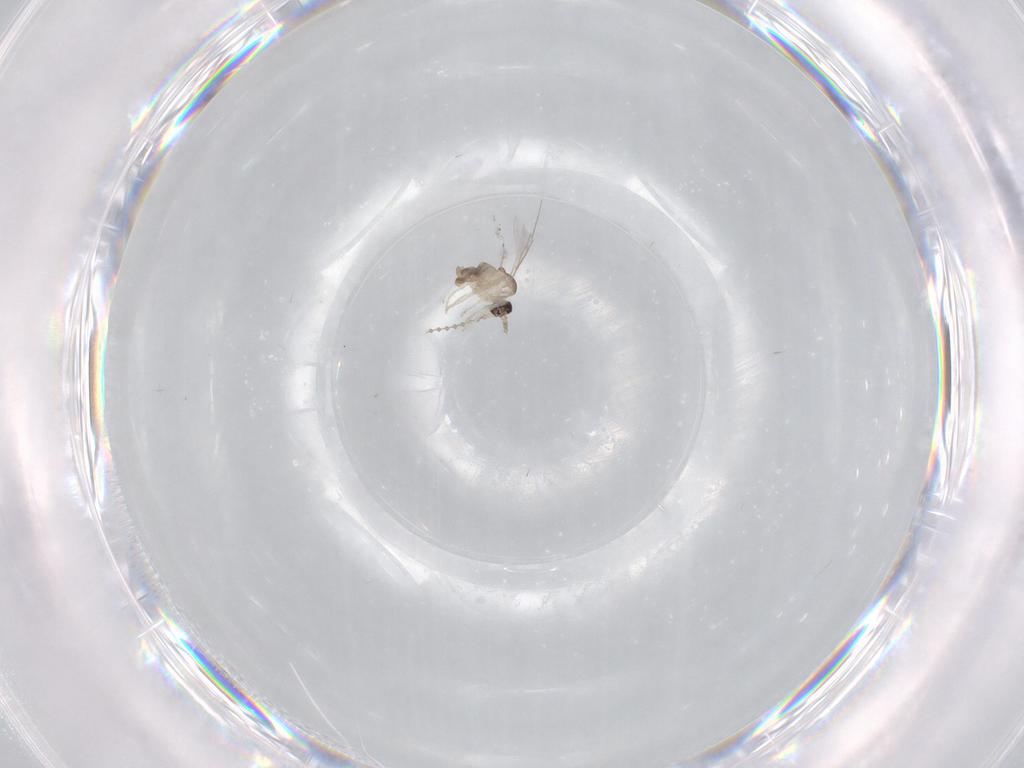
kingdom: Animalia
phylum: Arthropoda
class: Insecta
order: Diptera
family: Cecidomyiidae
